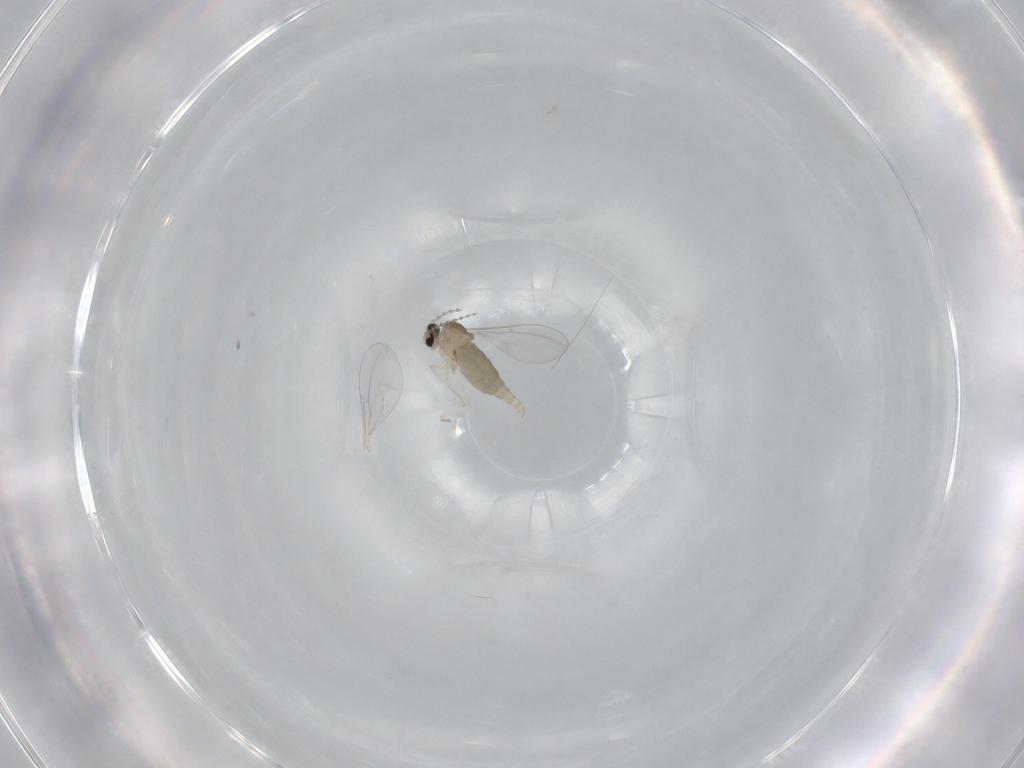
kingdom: Animalia
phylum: Arthropoda
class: Insecta
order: Diptera
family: Cecidomyiidae
